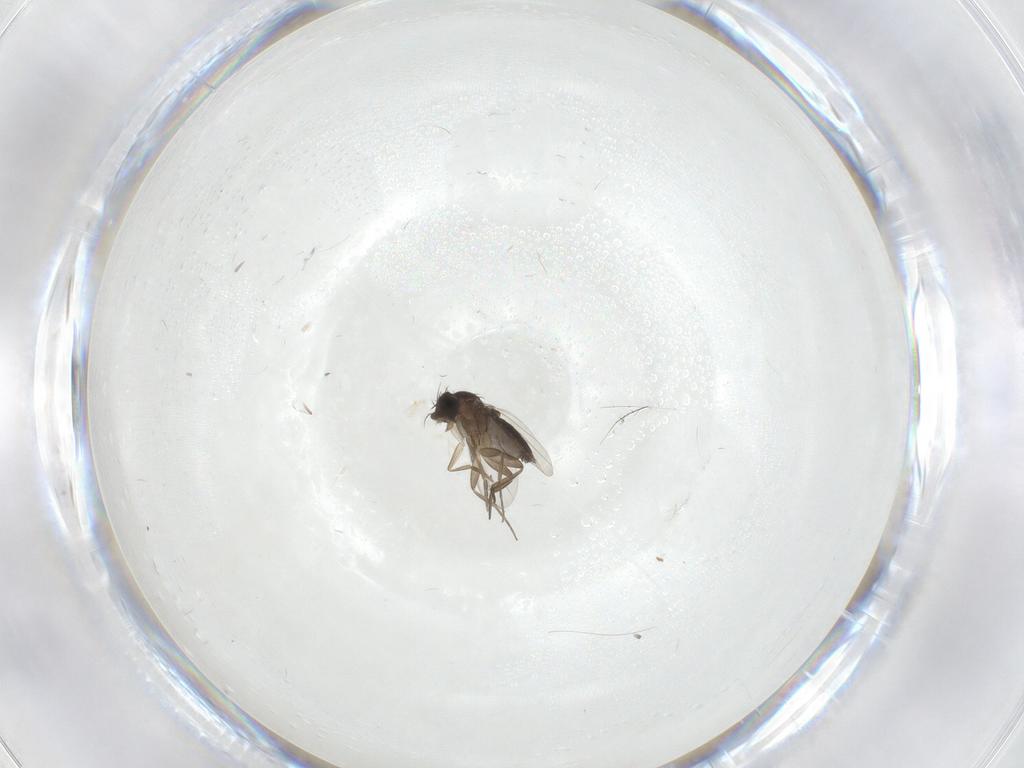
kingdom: Animalia
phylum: Arthropoda
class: Insecta
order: Diptera
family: Phoridae
